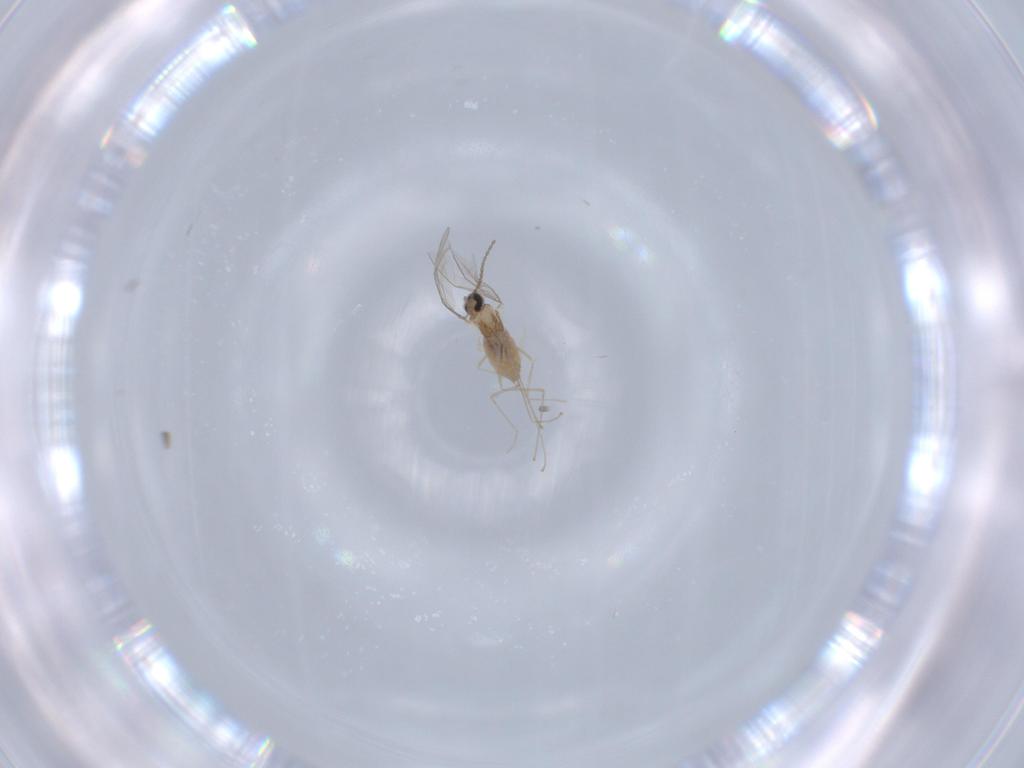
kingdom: Animalia
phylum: Arthropoda
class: Insecta
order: Diptera
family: Cecidomyiidae
